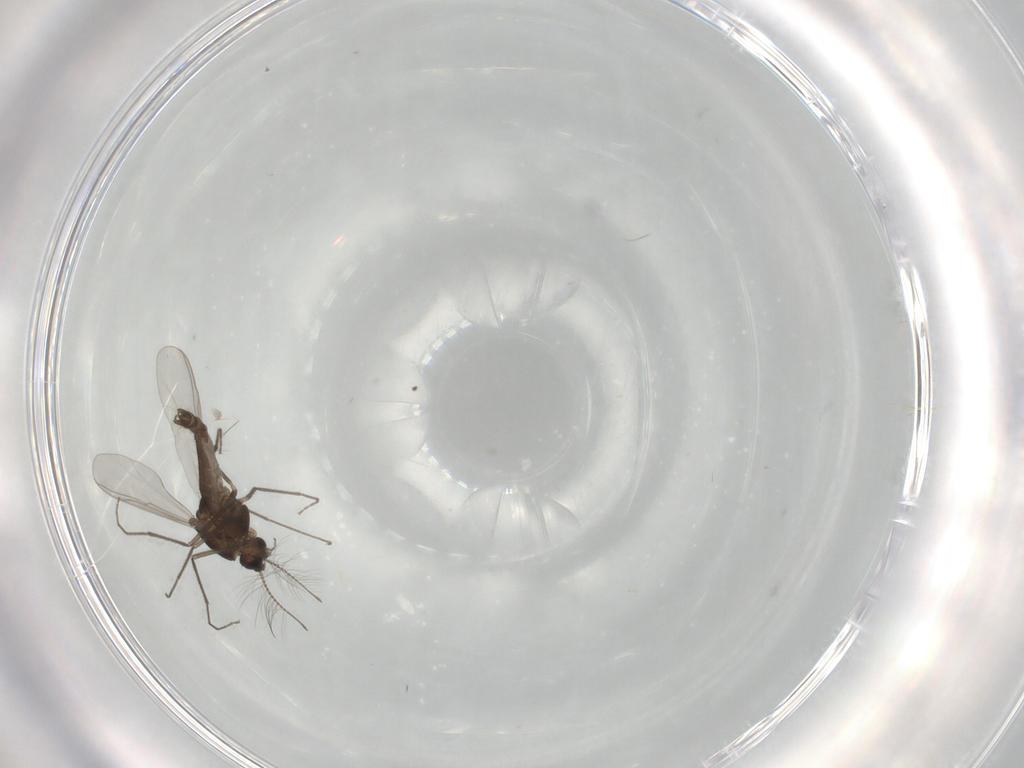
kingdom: Animalia
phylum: Arthropoda
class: Insecta
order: Diptera
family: Chironomidae
